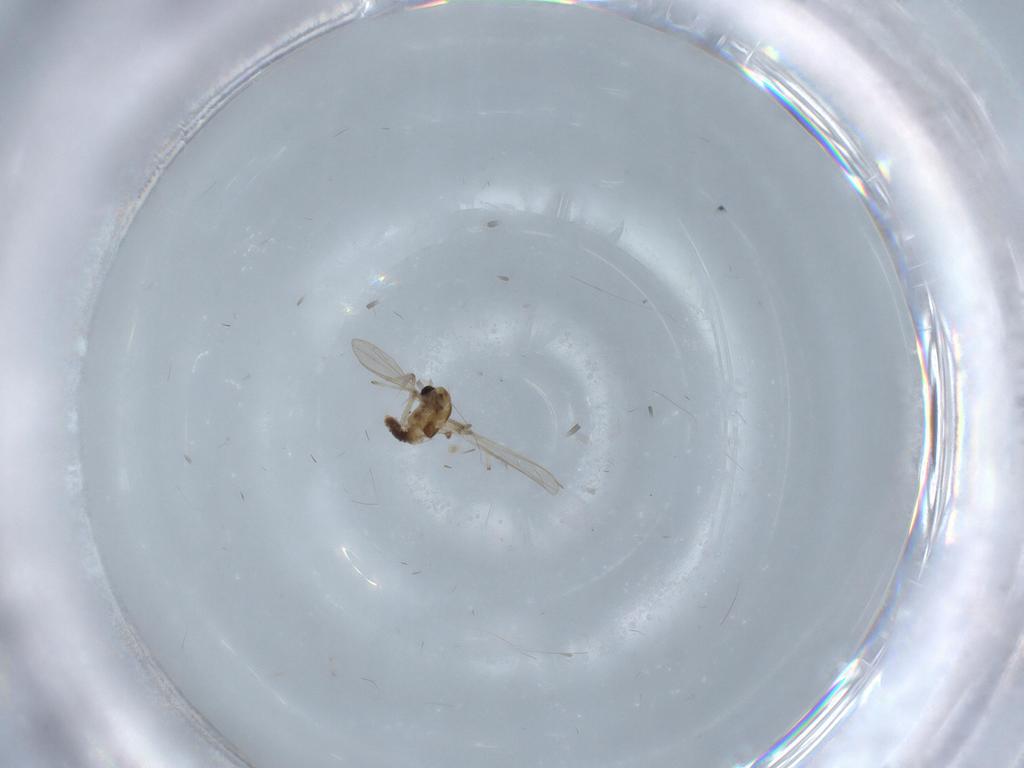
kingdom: Animalia
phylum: Arthropoda
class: Insecta
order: Diptera
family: Chironomidae
